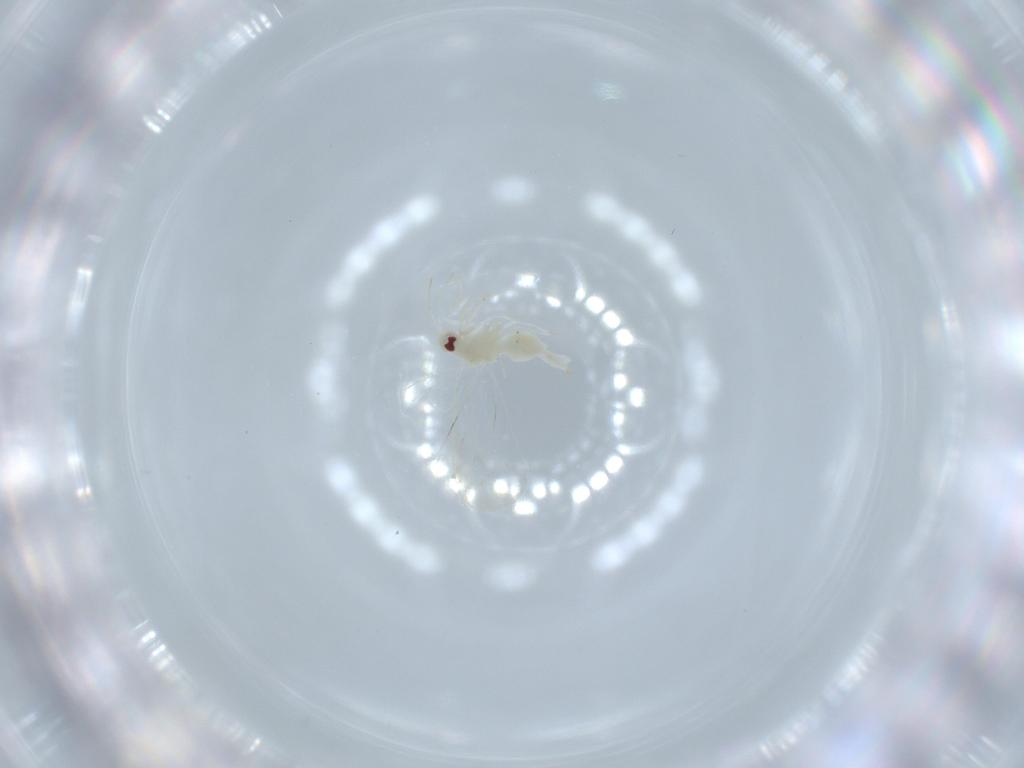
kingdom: Animalia
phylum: Arthropoda
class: Insecta
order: Hemiptera
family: Aleyrodidae
